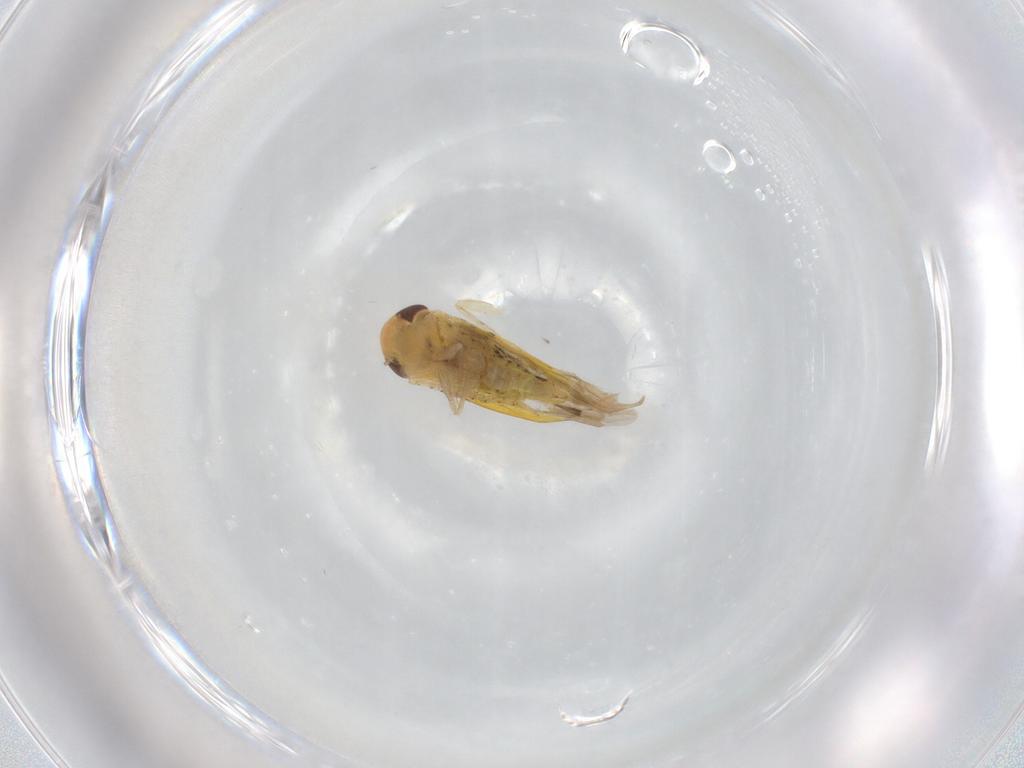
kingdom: Animalia
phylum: Arthropoda
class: Insecta
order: Hemiptera
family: Cicadellidae
